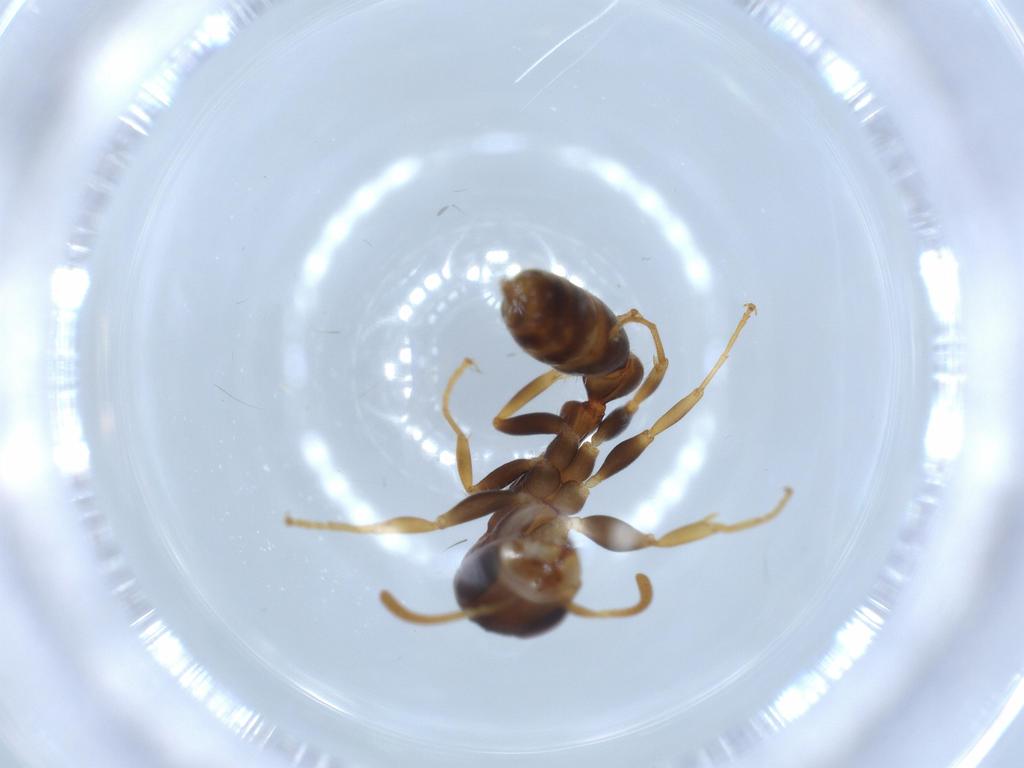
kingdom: Animalia
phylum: Arthropoda
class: Insecta
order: Hymenoptera
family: Formicidae
